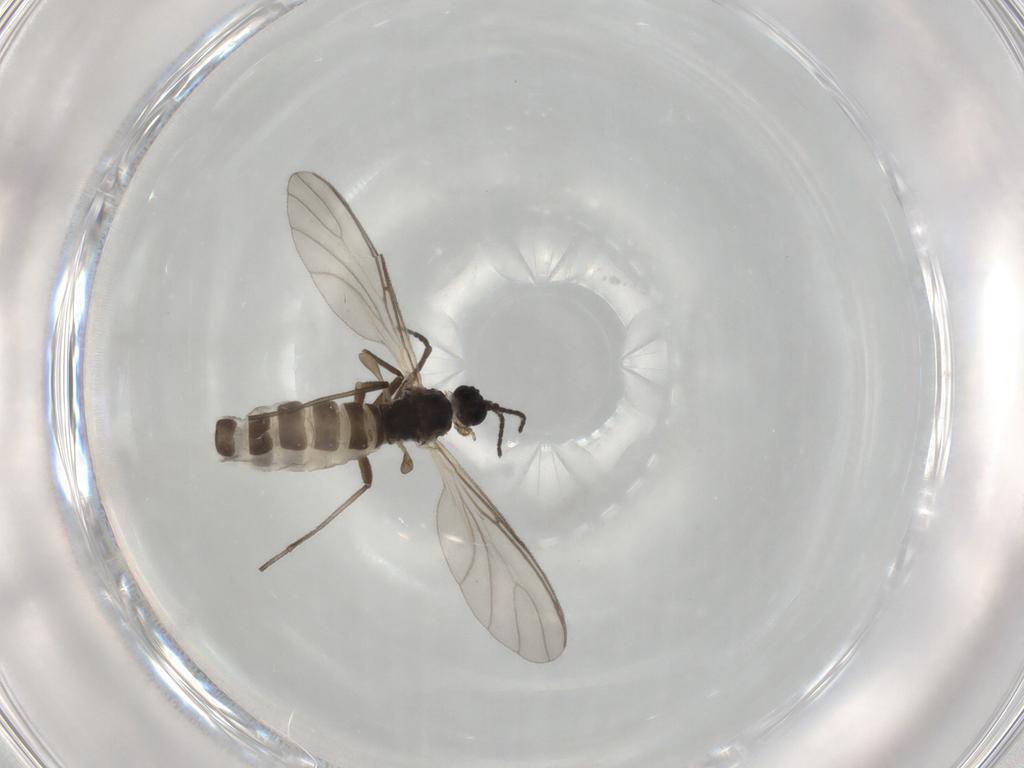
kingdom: Animalia
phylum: Arthropoda
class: Insecta
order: Diptera
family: Sciaridae
